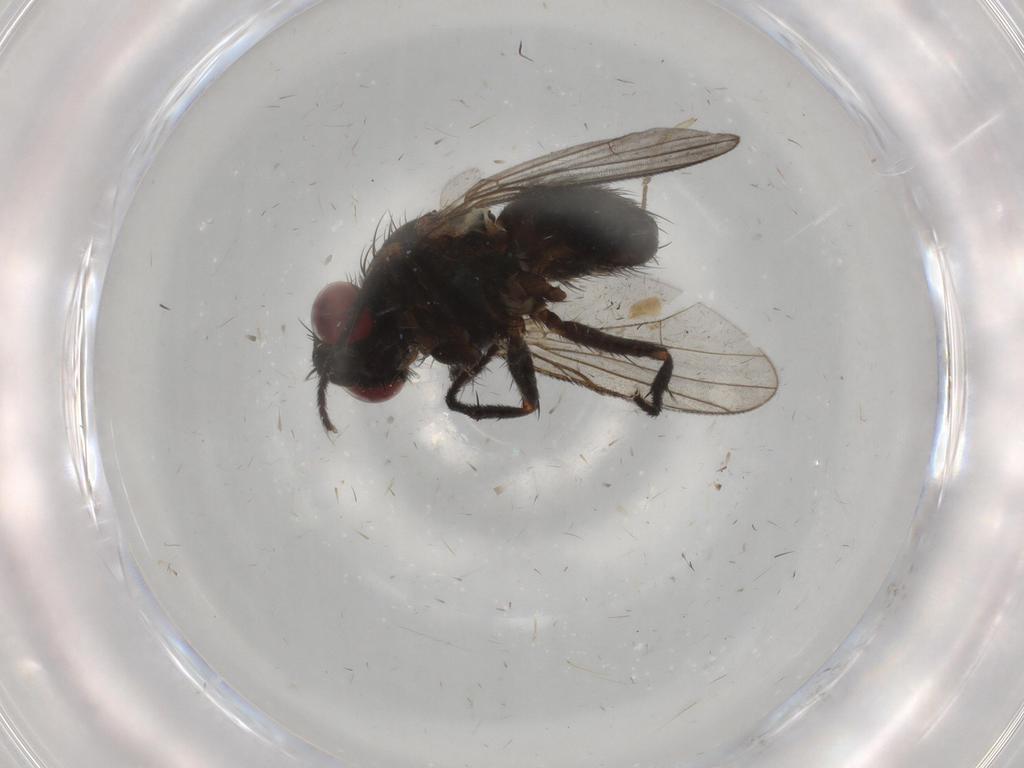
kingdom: Animalia
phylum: Arthropoda
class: Insecta
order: Diptera
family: Muscidae
